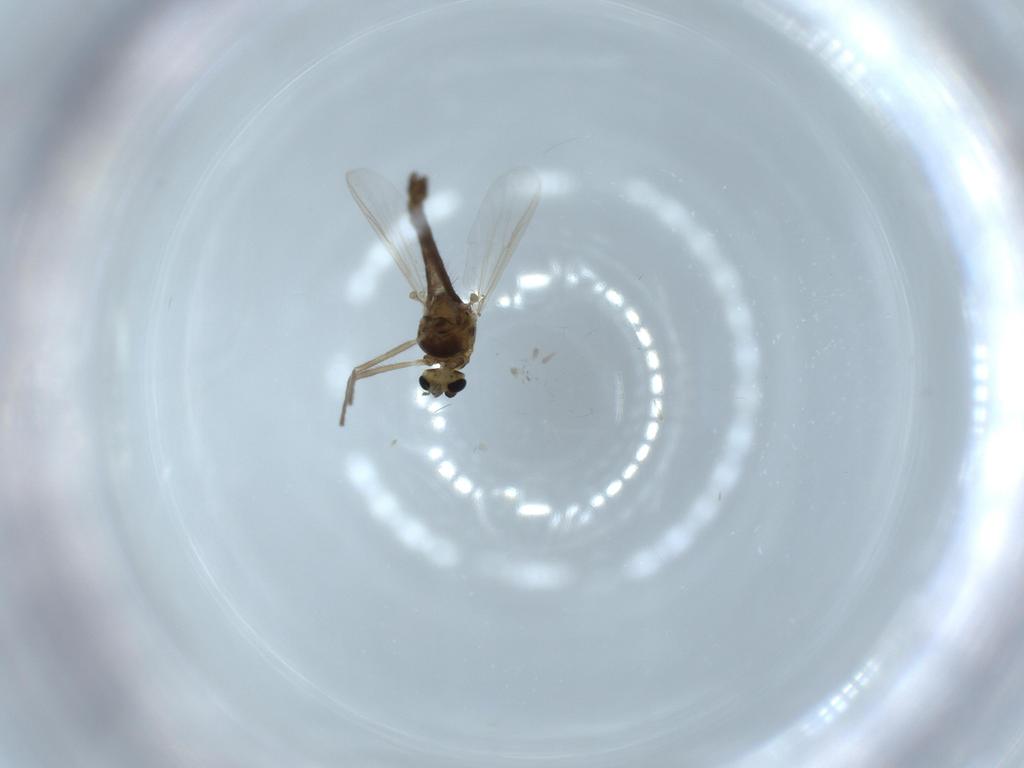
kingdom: Animalia
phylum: Arthropoda
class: Insecta
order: Diptera
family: Chironomidae
